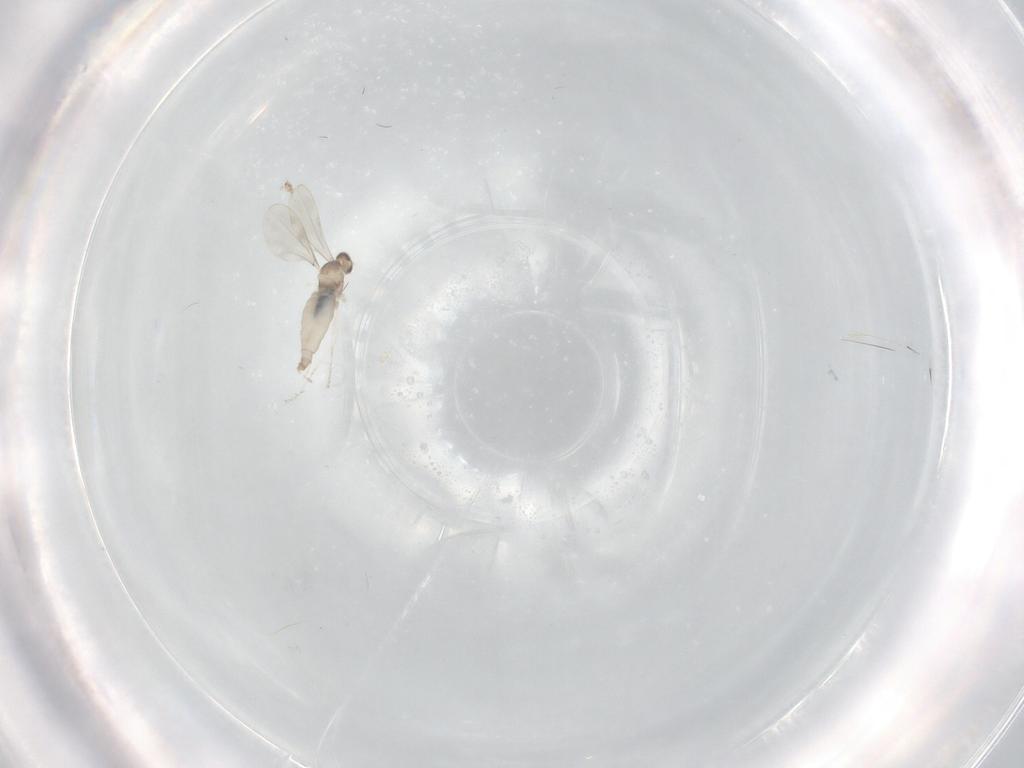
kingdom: Animalia
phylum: Arthropoda
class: Insecta
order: Diptera
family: Cecidomyiidae
